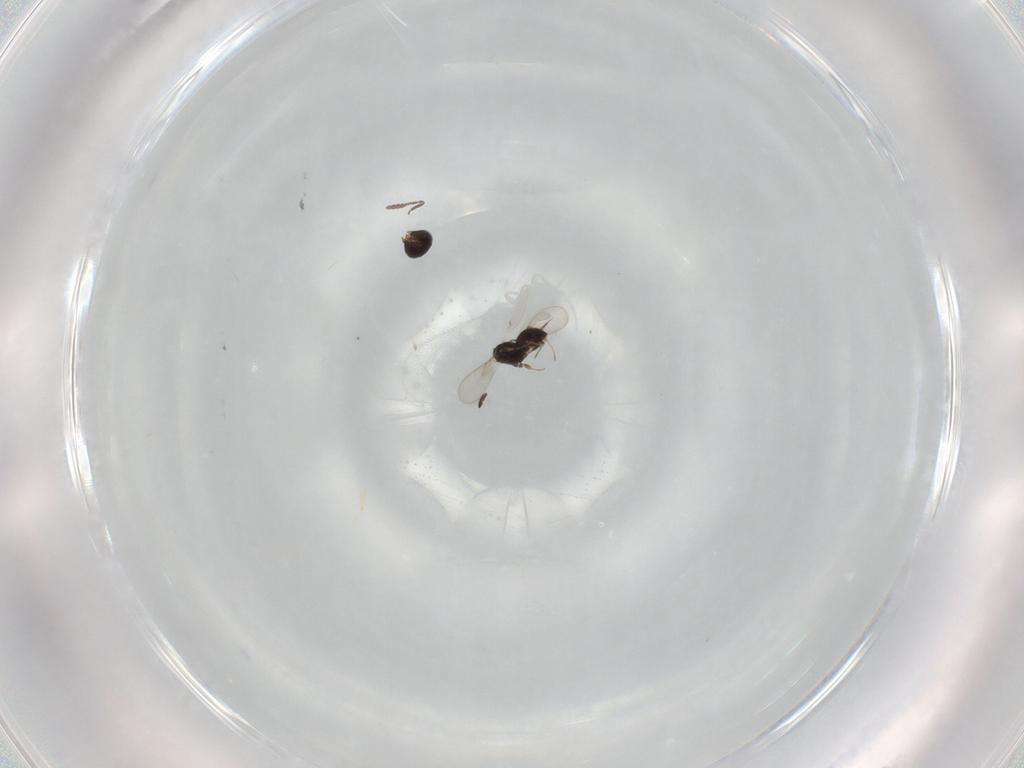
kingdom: Animalia
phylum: Arthropoda
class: Insecta
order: Hymenoptera
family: Scelionidae
